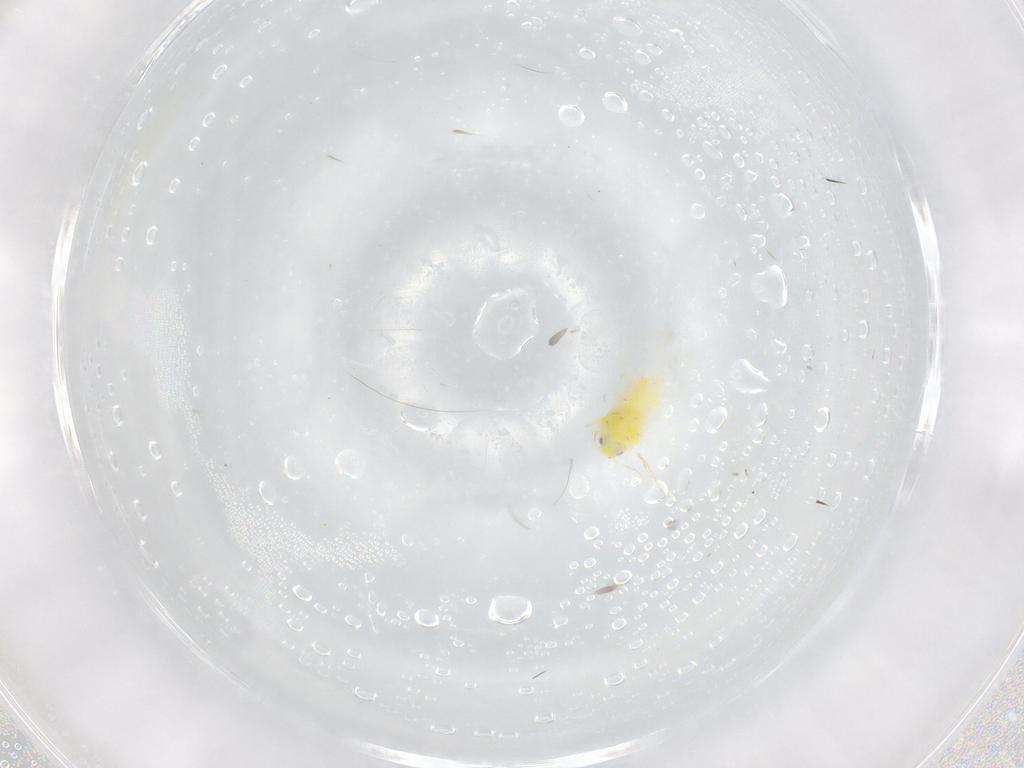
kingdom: Animalia
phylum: Arthropoda
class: Insecta
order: Hemiptera
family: Aleyrodidae
